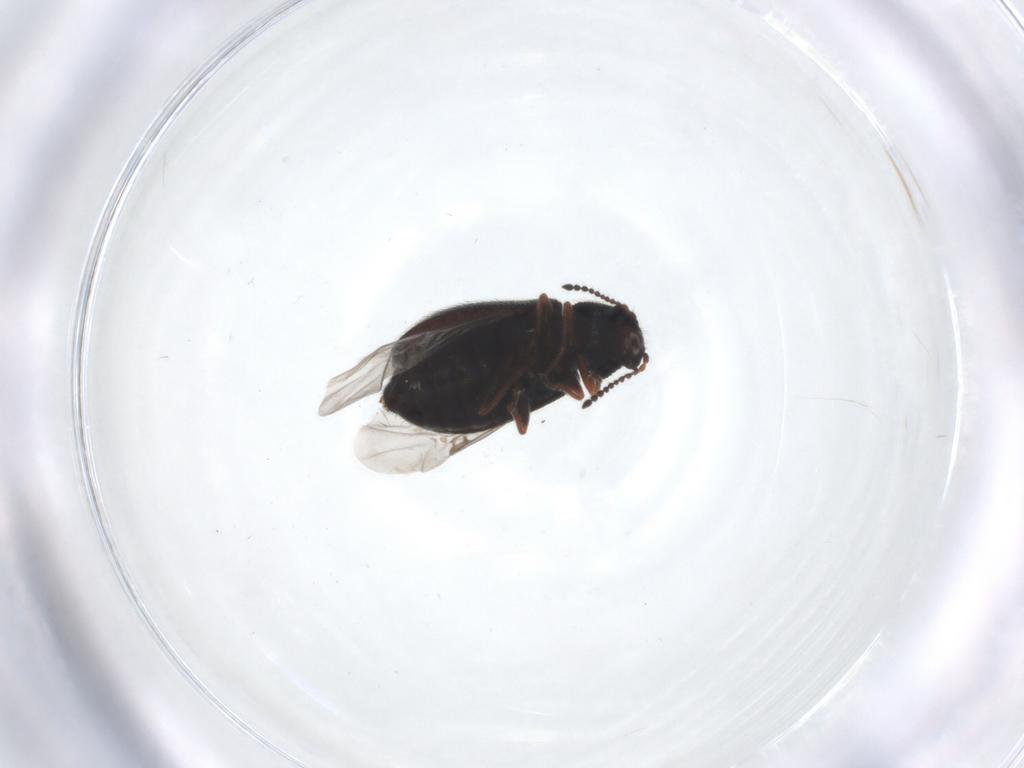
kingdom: Animalia
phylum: Arthropoda
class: Insecta
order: Coleoptera
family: Melyridae
